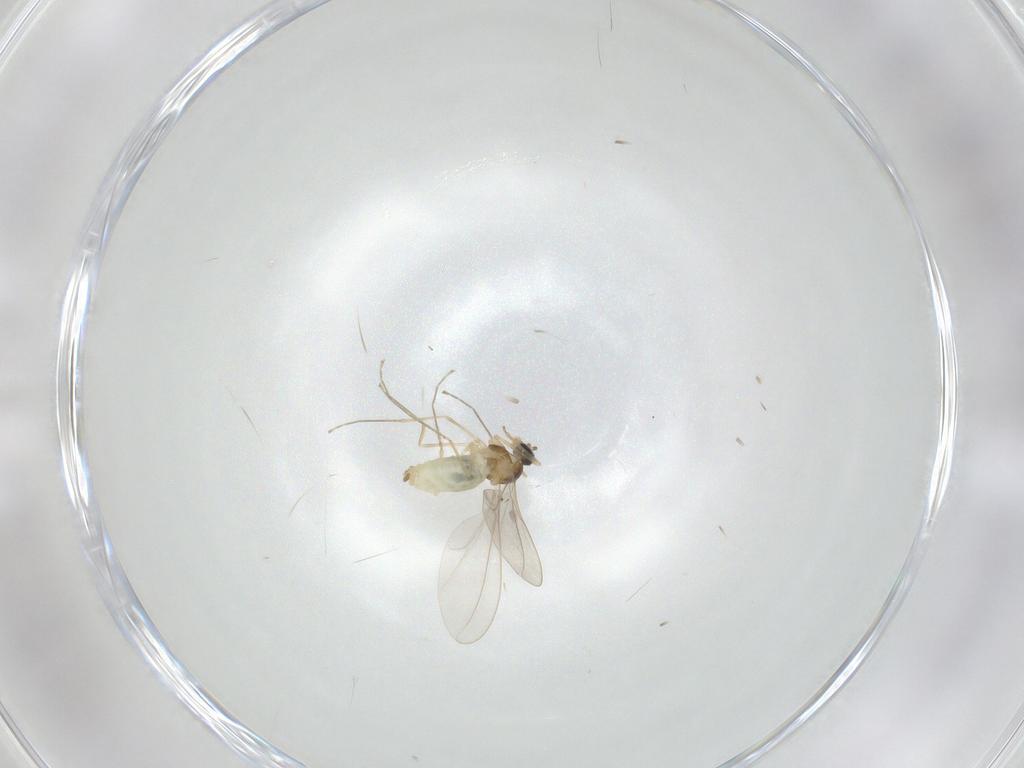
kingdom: Animalia
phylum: Arthropoda
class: Insecta
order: Diptera
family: Cecidomyiidae
